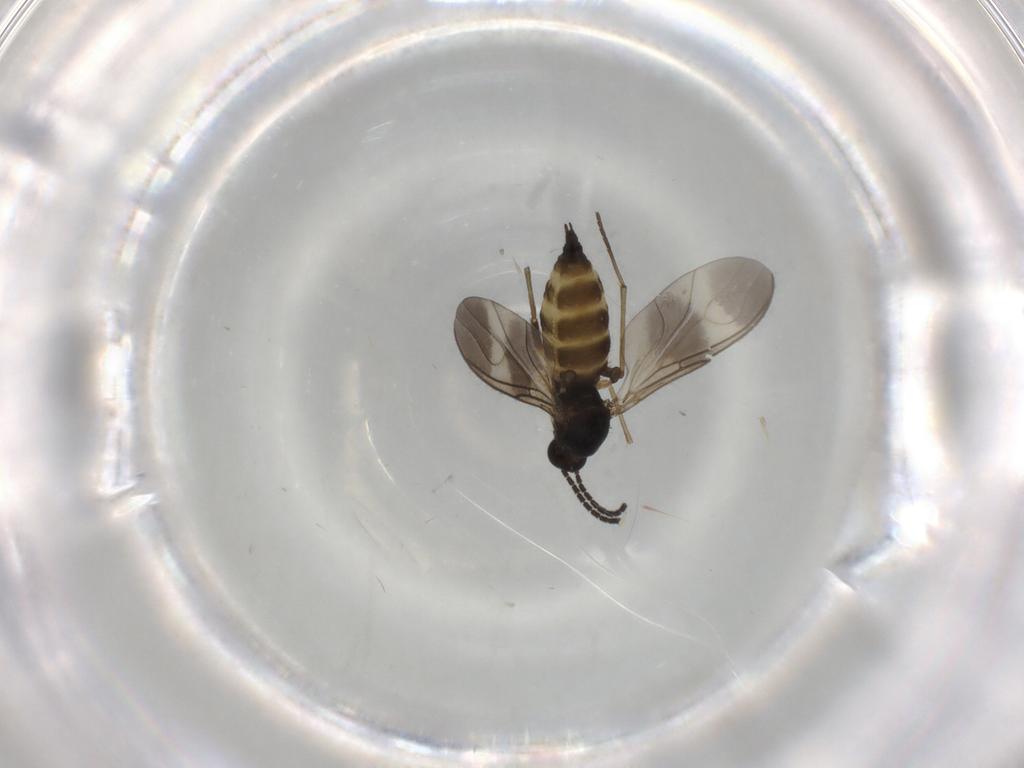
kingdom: Animalia
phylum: Arthropoda
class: Insecta
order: Diptera
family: Sciaridae
